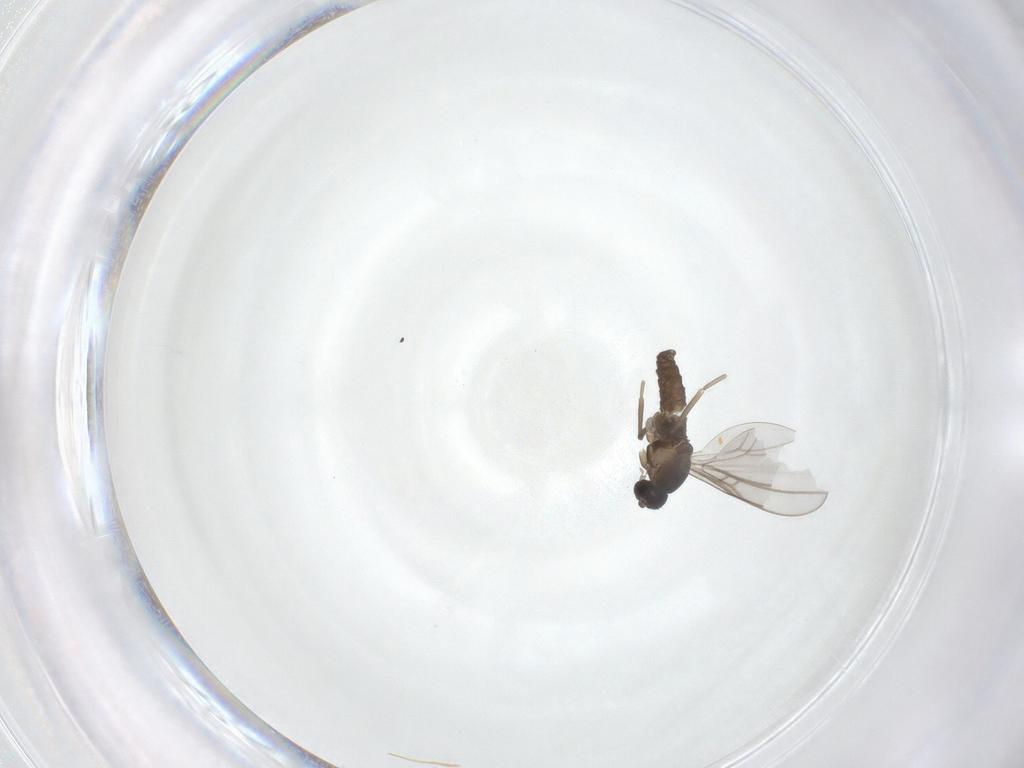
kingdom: Animalia
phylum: Arthropoda
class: Insecta
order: Diptera
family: Cecidomyiidae
